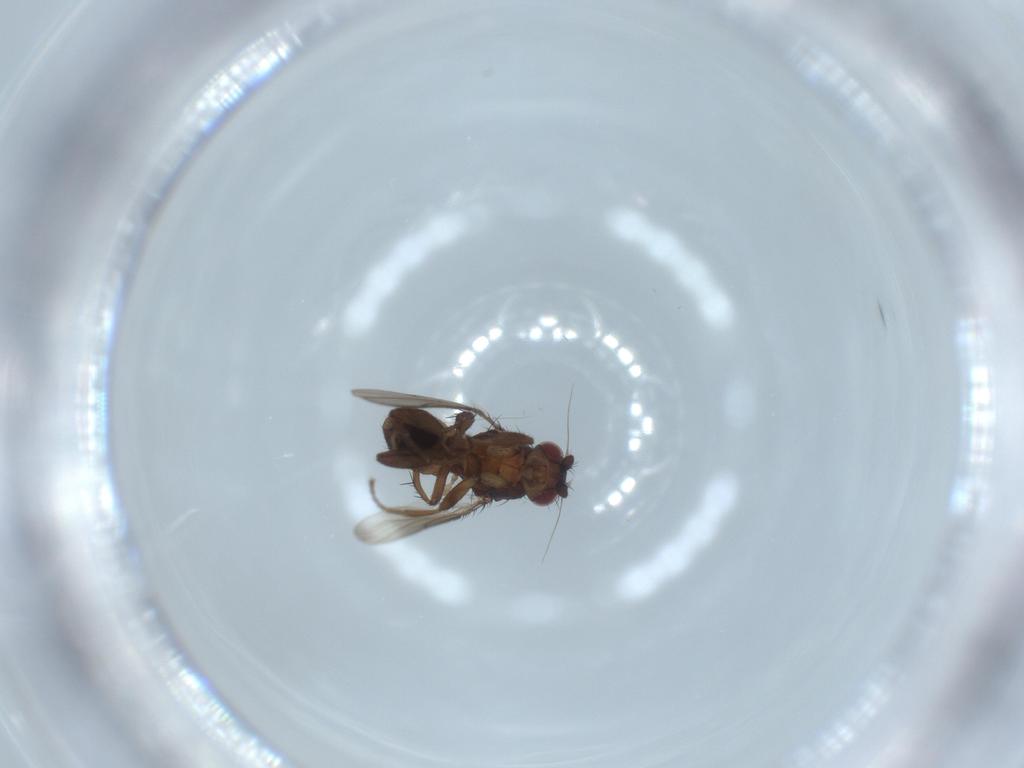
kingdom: Animalia
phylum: Arthropoda
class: Insecta
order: Diptera
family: Sphaeroceridae
